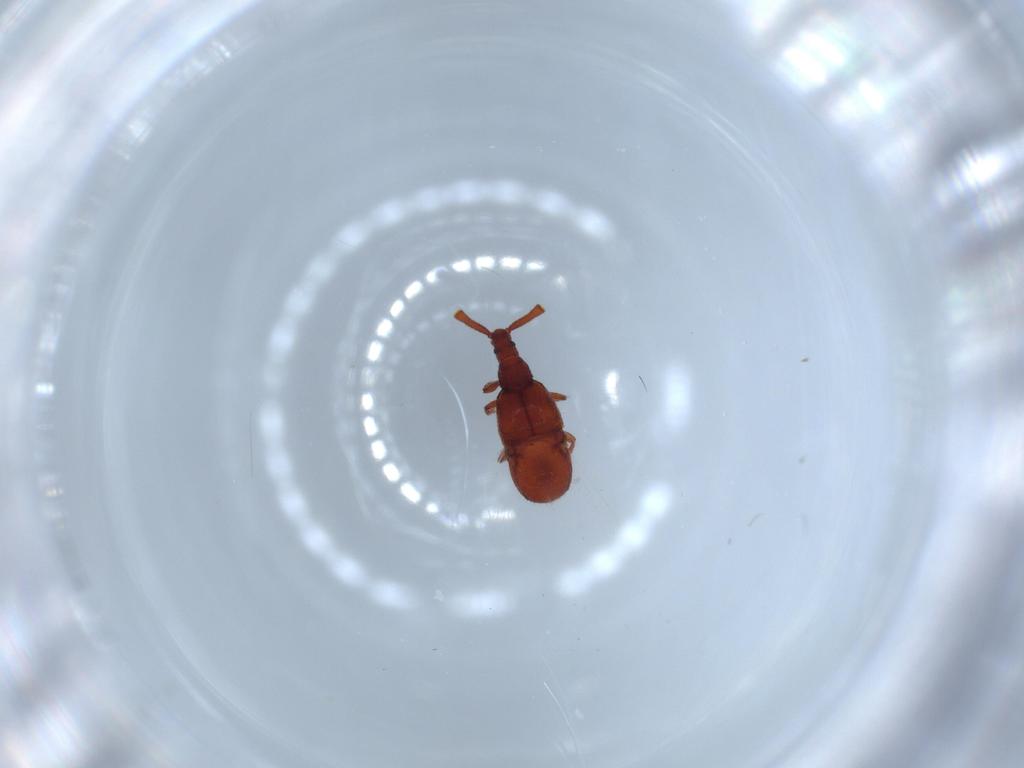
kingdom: Animalia
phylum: Arthropoda
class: Insecta
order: Coleoptera
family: Staphylinidae
